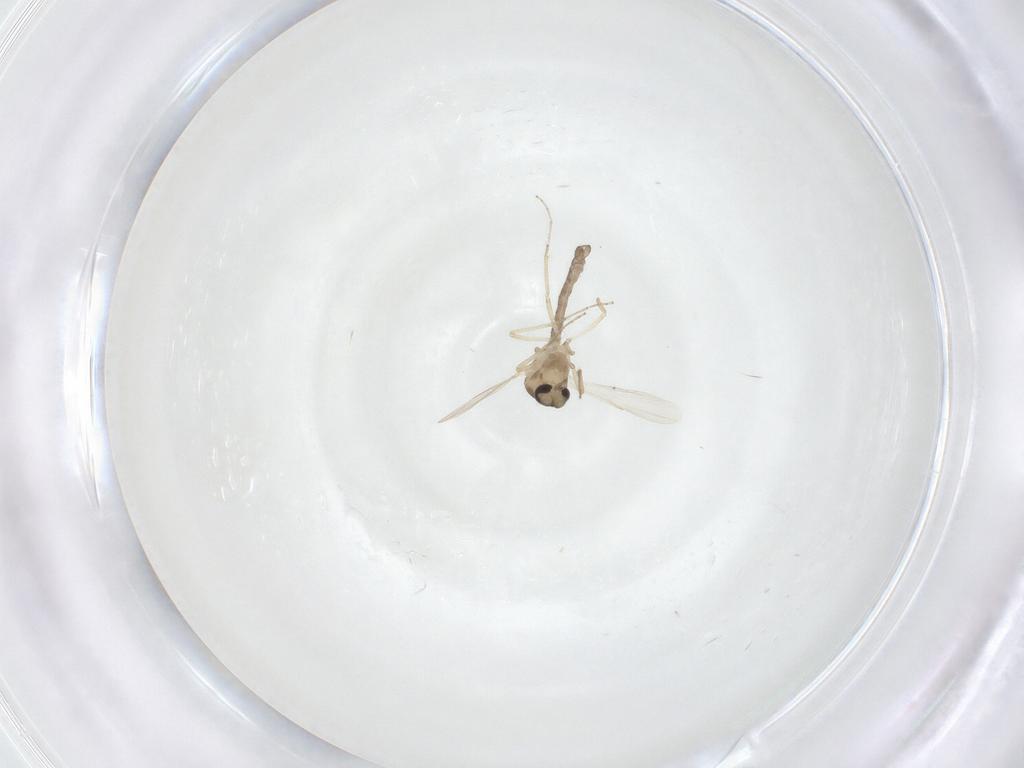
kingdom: Animalia
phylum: Arthropoda
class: Insecta
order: Diptera
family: Ceratopogonidae
